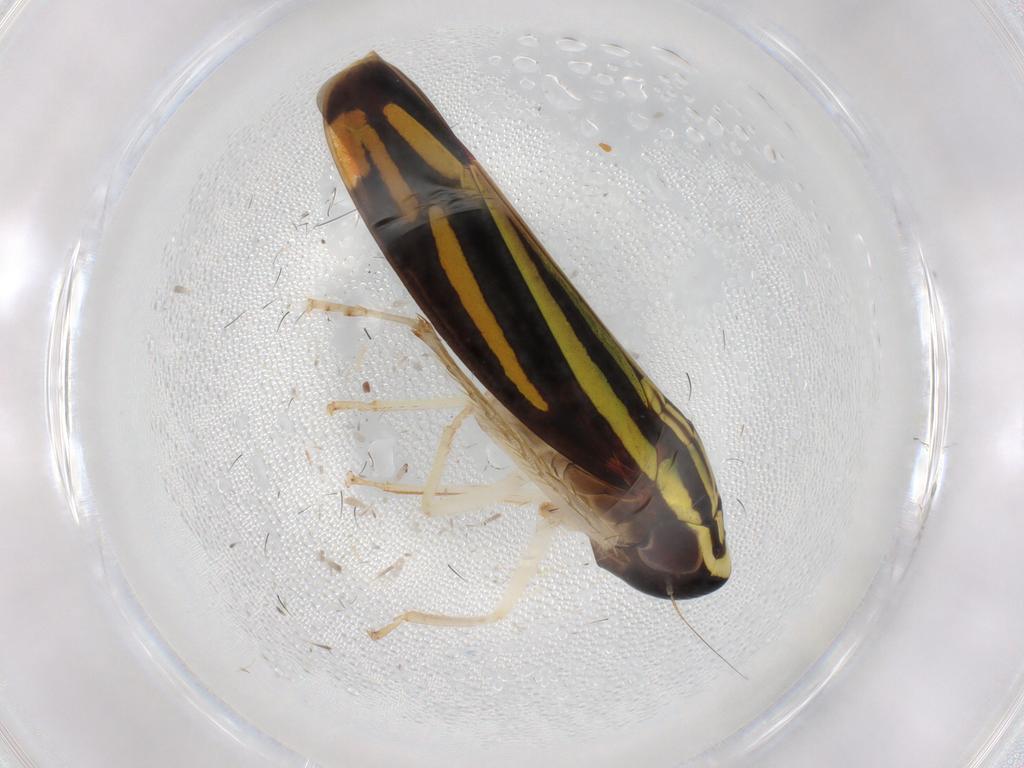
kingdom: Animalia
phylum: Arthropoda
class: Insecta
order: Hemiptera
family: Cicadellidae
